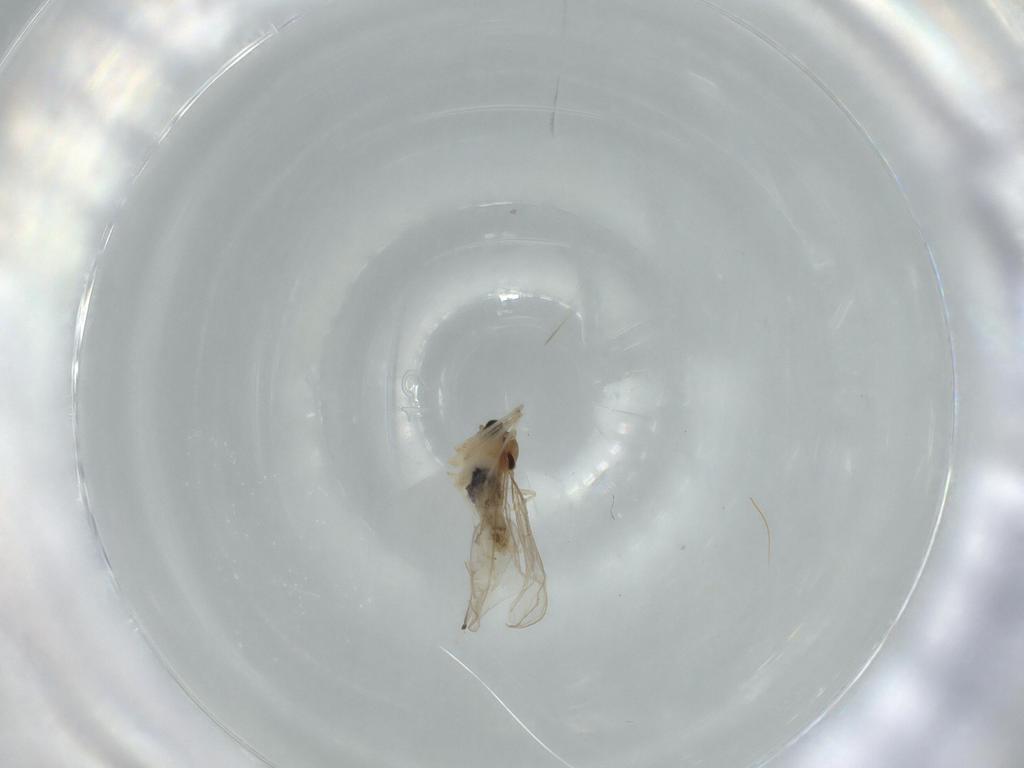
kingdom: Animalia
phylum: Arthropoda
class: Insecta
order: Diptera
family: Cecidomyiidae
